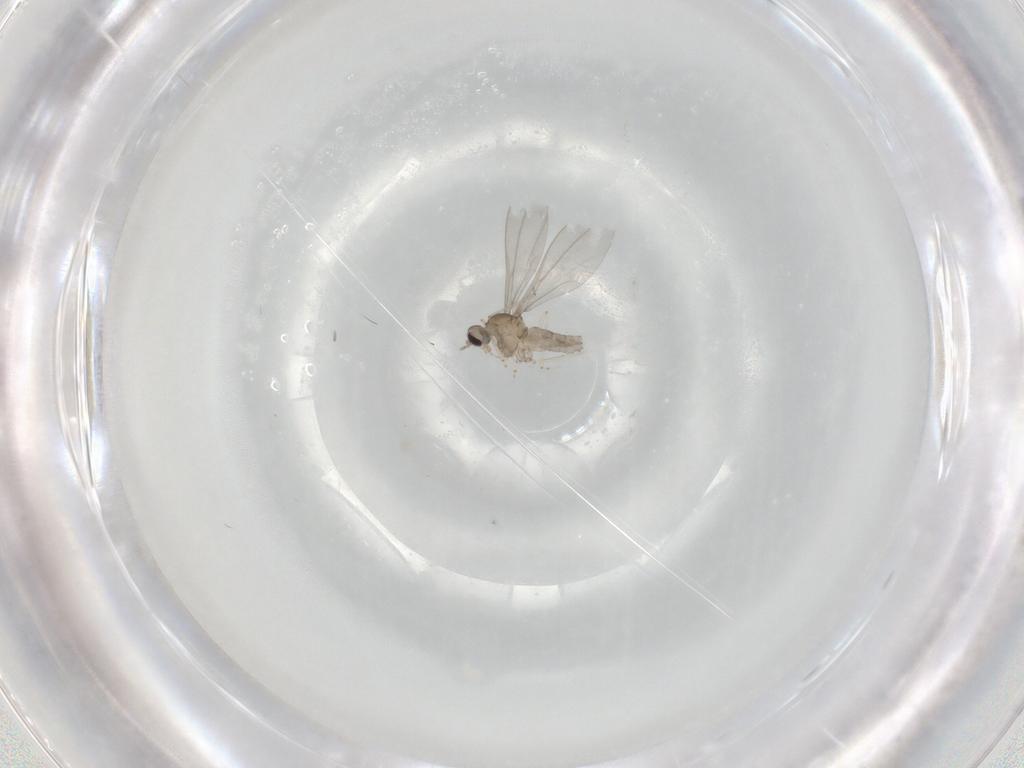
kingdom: Animalia
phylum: Arthropoda
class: Insecta
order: Diptera
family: Cecidomyiidae
